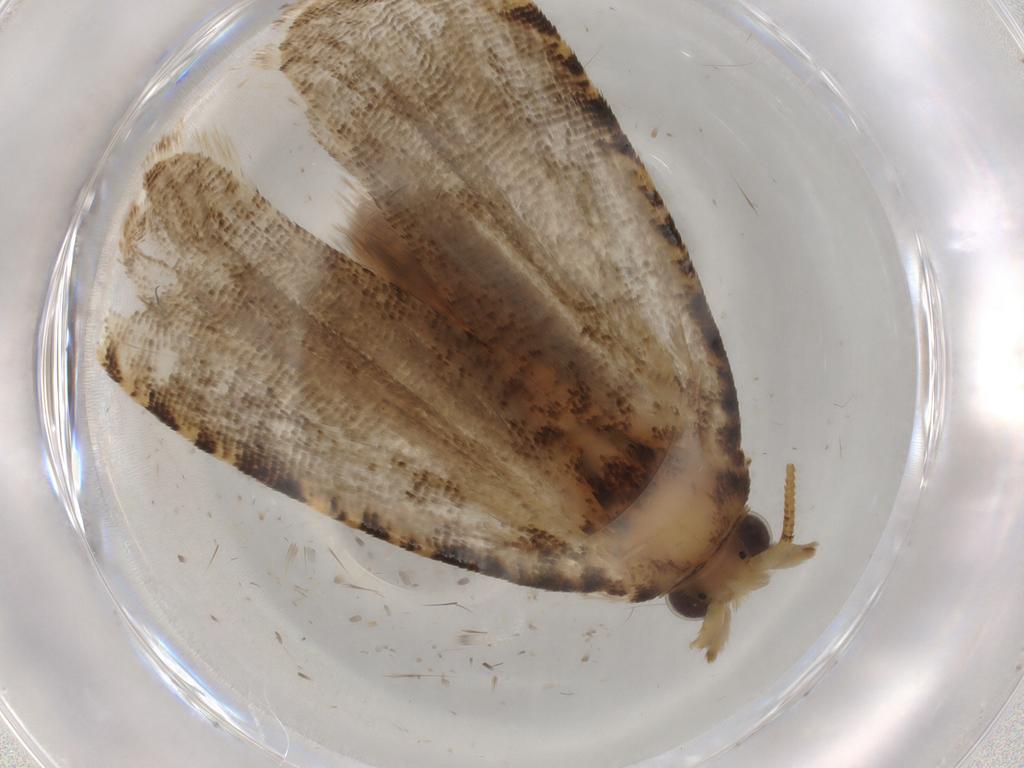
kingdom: Animalia
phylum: Arthropoda
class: Insecta
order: Lepidoptera
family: Tortricidae
